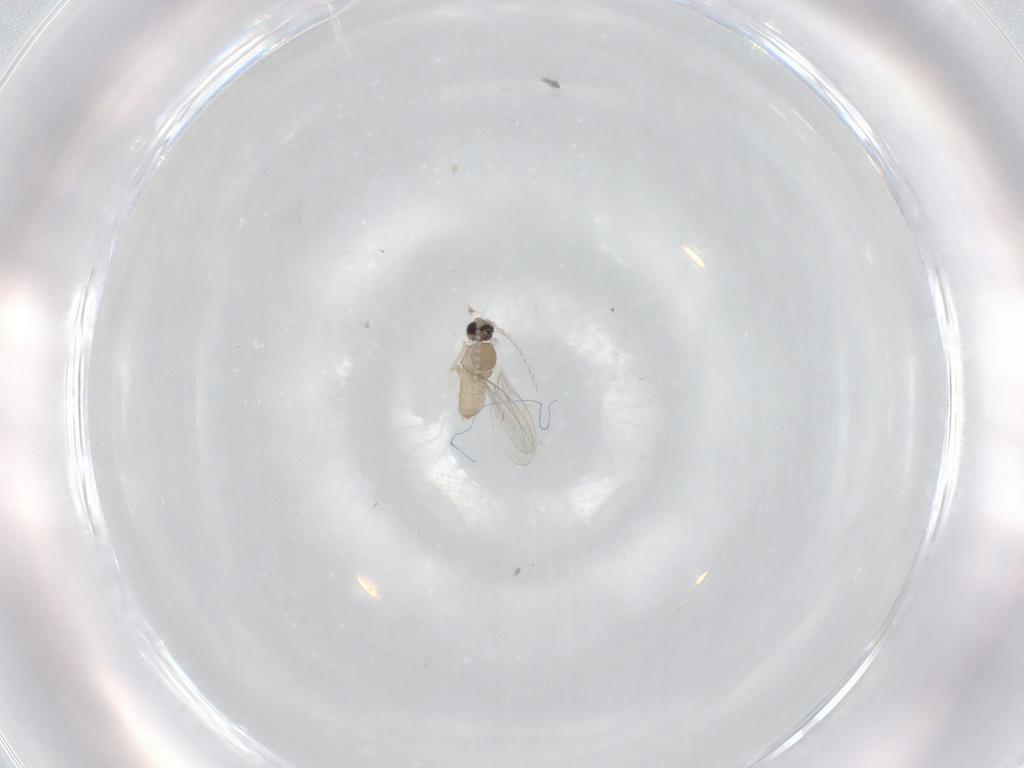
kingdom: Animalia
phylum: Arthropoda
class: Insecta
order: Diptera
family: Cecidomyiidae
